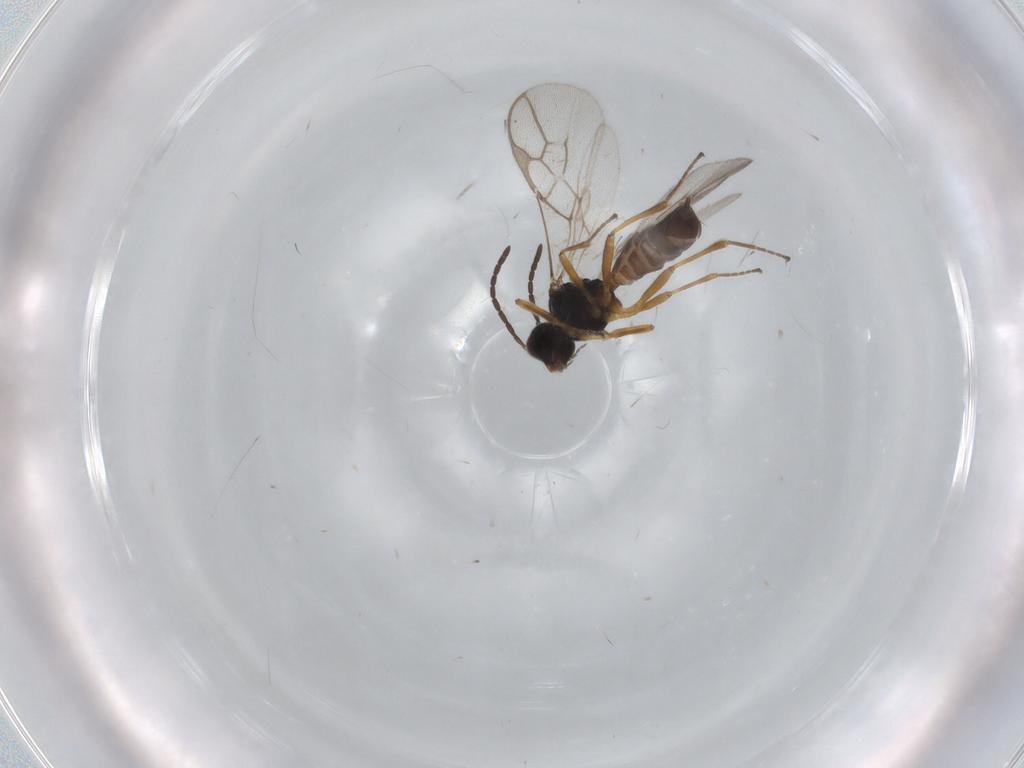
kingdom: Animalia
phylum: Arthropoda
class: Insecta
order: Hymenoptera
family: Braconidae
